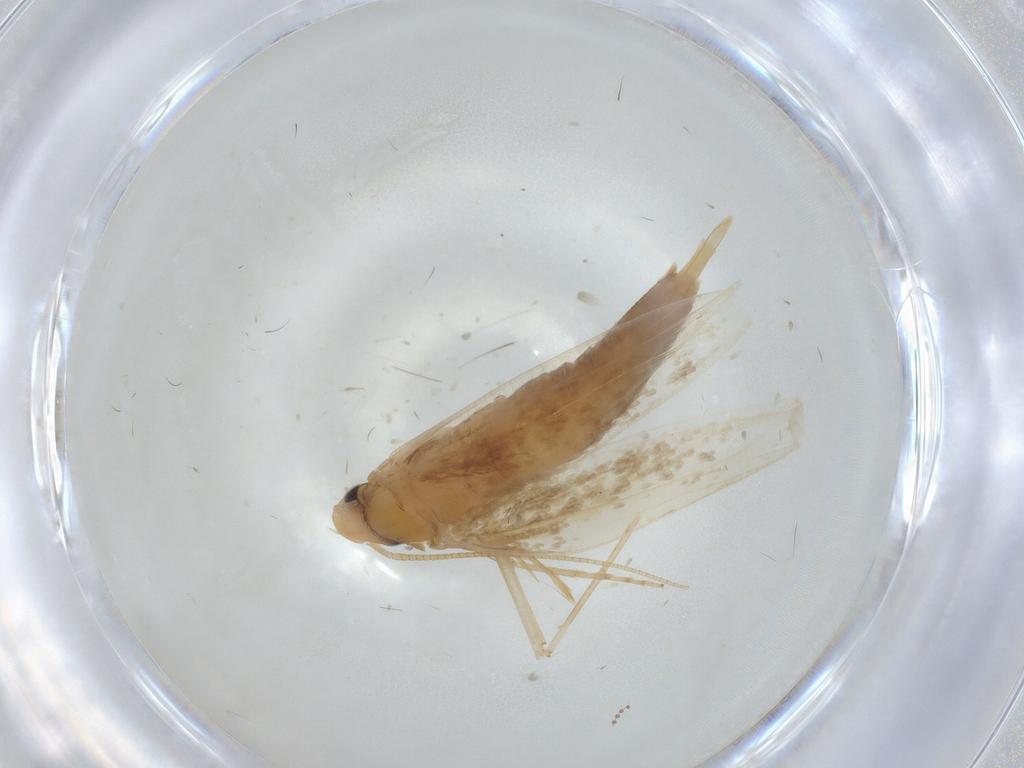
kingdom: Animalia
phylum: Arthropoda
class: Insecta
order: Lepidoptera
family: Tineidae
